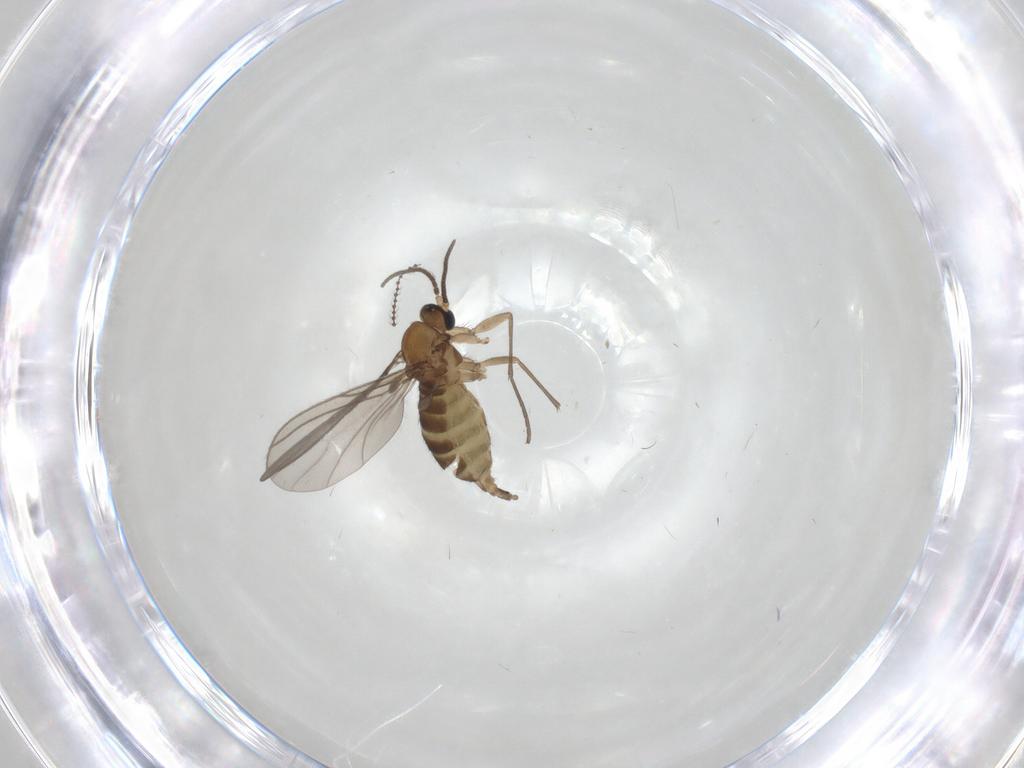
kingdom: Animalia
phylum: Arthropoda
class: Insecta
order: Diptera
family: Sciaridae
